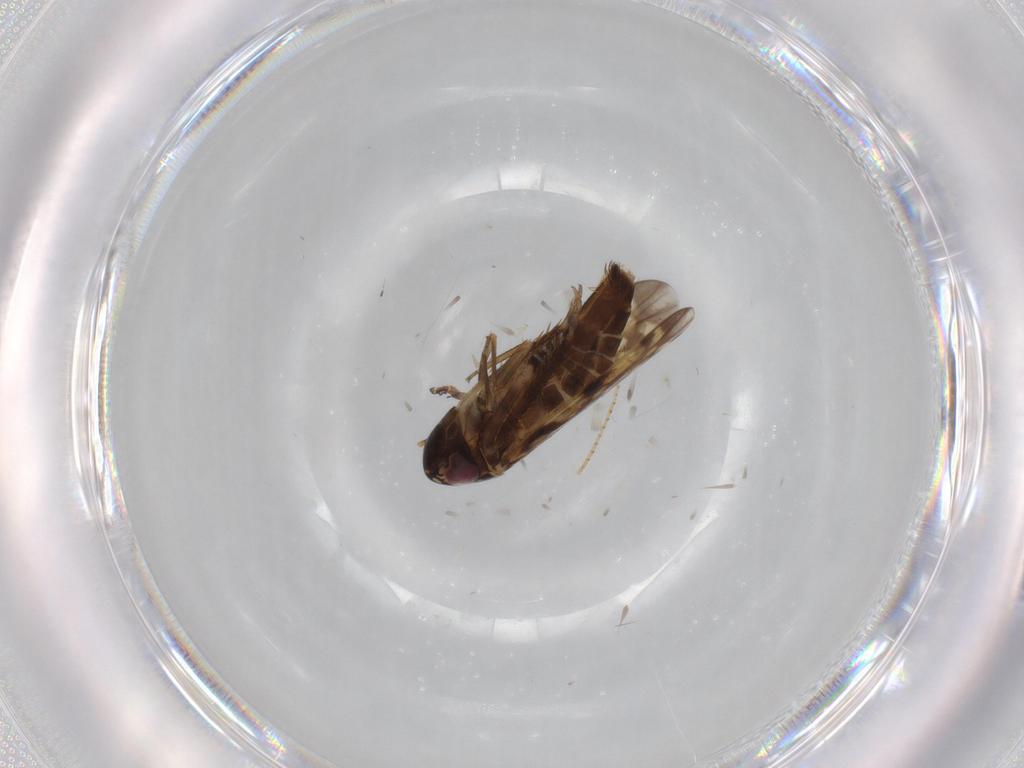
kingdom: Animalia
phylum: Arthropoda
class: Insecta
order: Hemiptera
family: Cicadellidae
